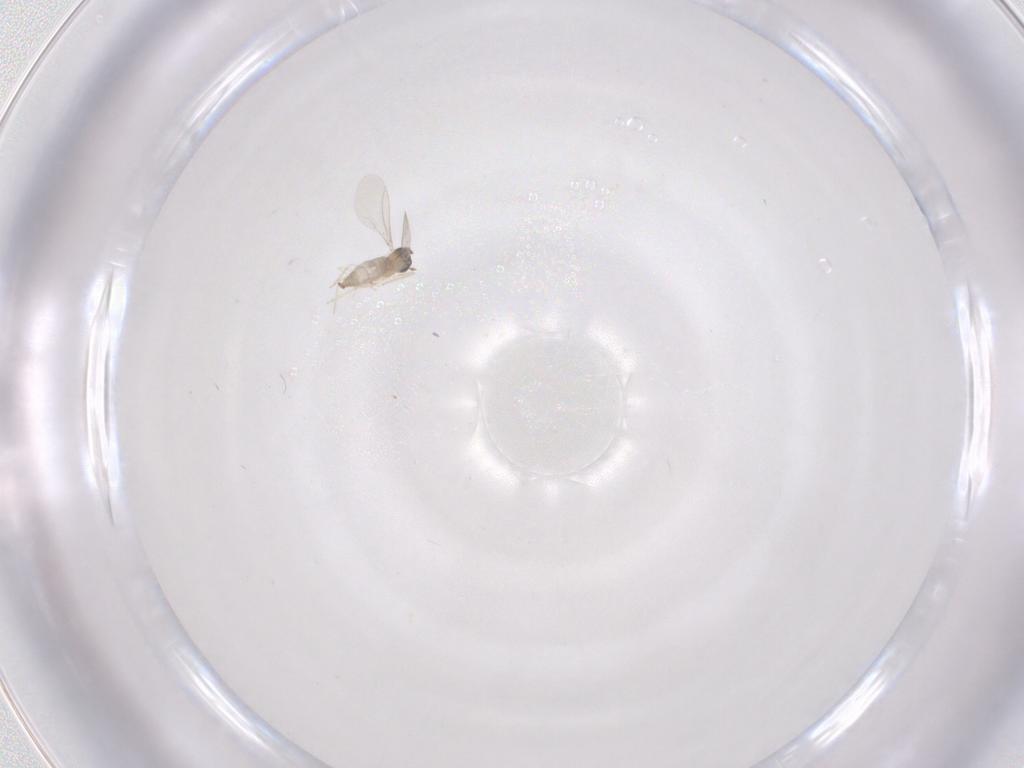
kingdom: Animalia
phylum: Arthropoda
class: Insecta
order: Diptera
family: Cecidomyiidae
